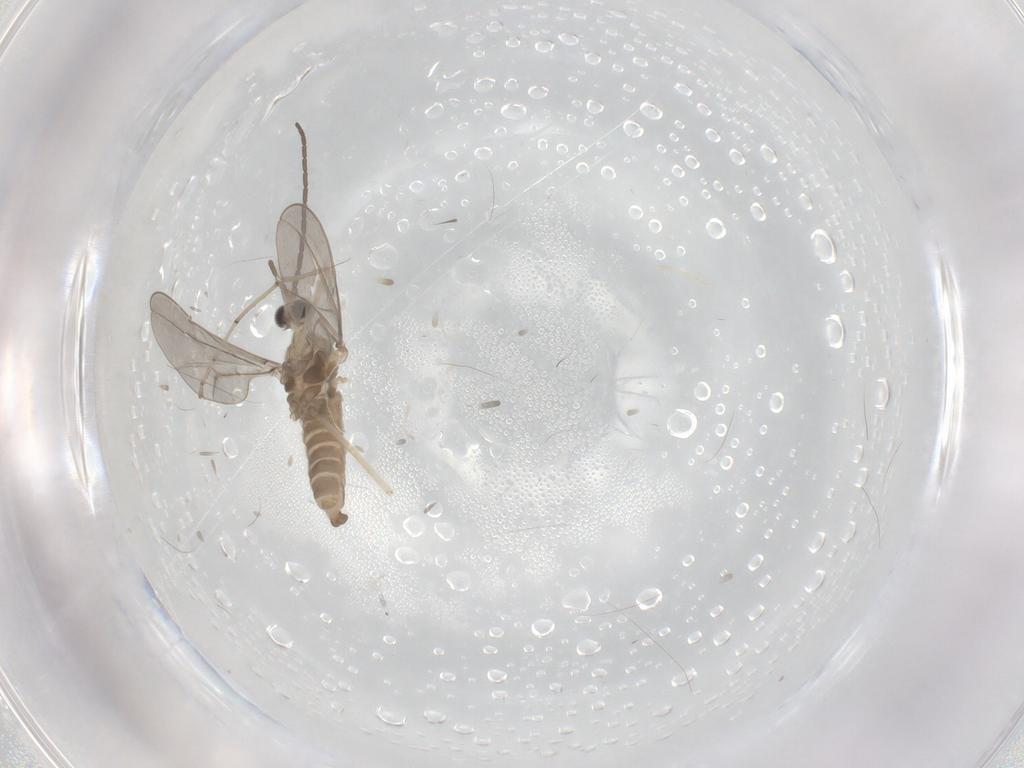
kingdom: Animalia
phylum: Arthropoda
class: Insecta
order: Diptera
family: Cecidomyiidae
